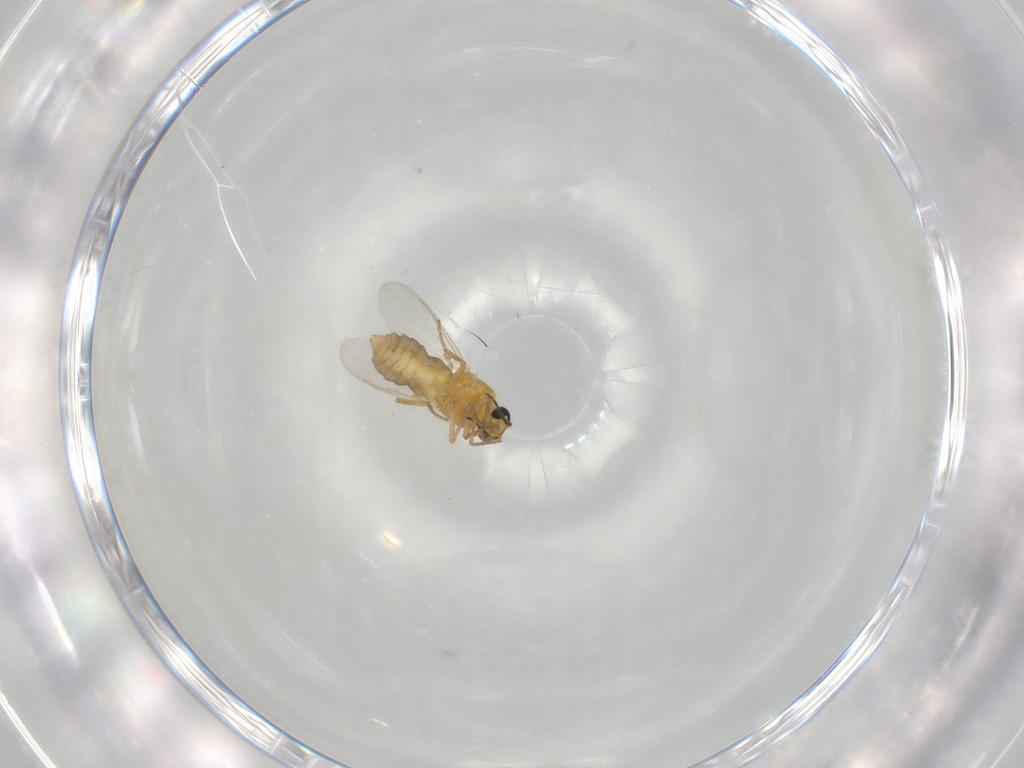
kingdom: Animalia
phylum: Arthropoda
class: Insecta
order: Diptera
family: Ceratopogonidae
